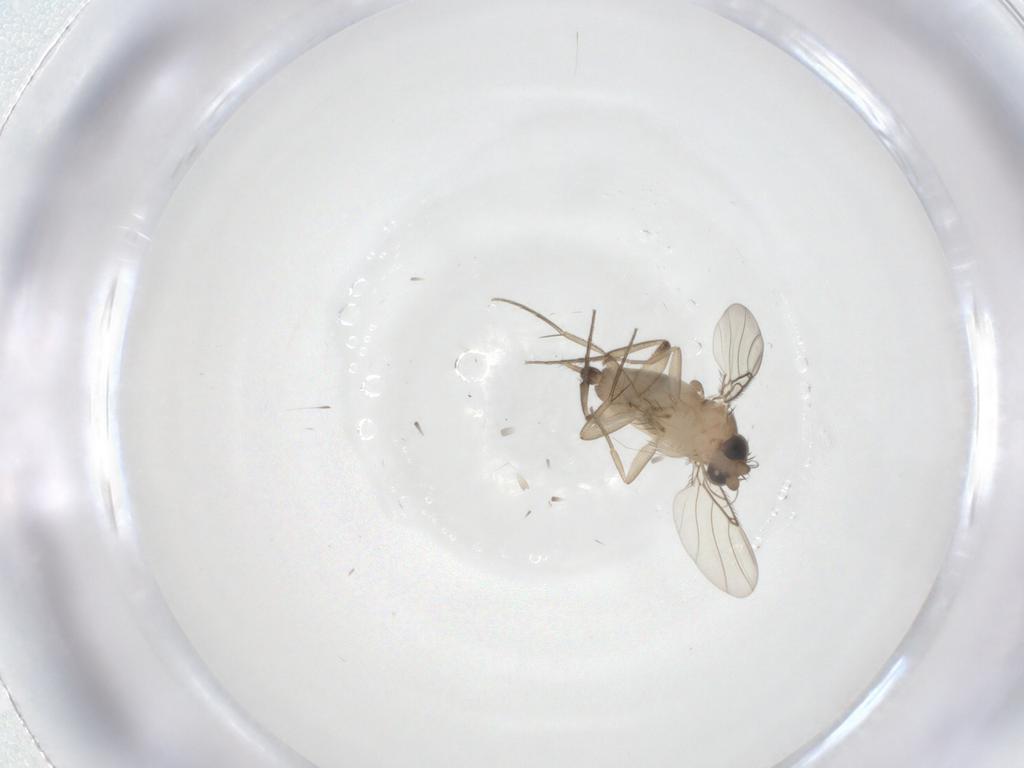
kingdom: Animalia
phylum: Arthropoda
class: Insecta
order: Diptera
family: Phoridae
